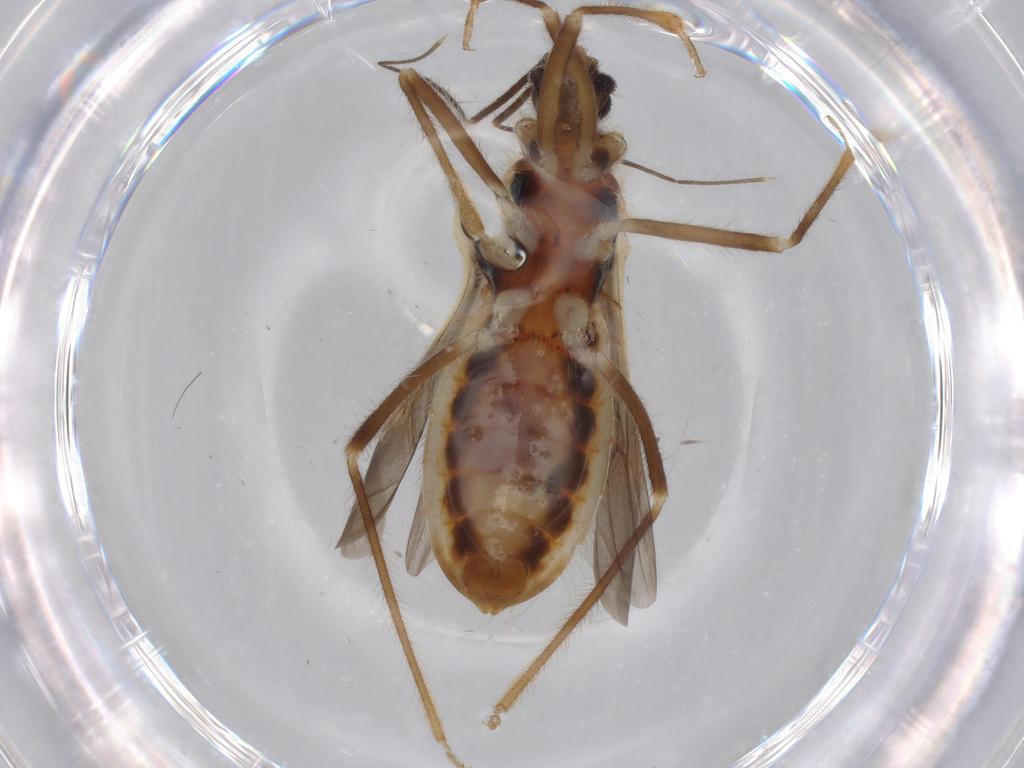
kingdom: Animalia
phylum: Arthropoda
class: Insecta
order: Hemiptera
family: Reduviidae
